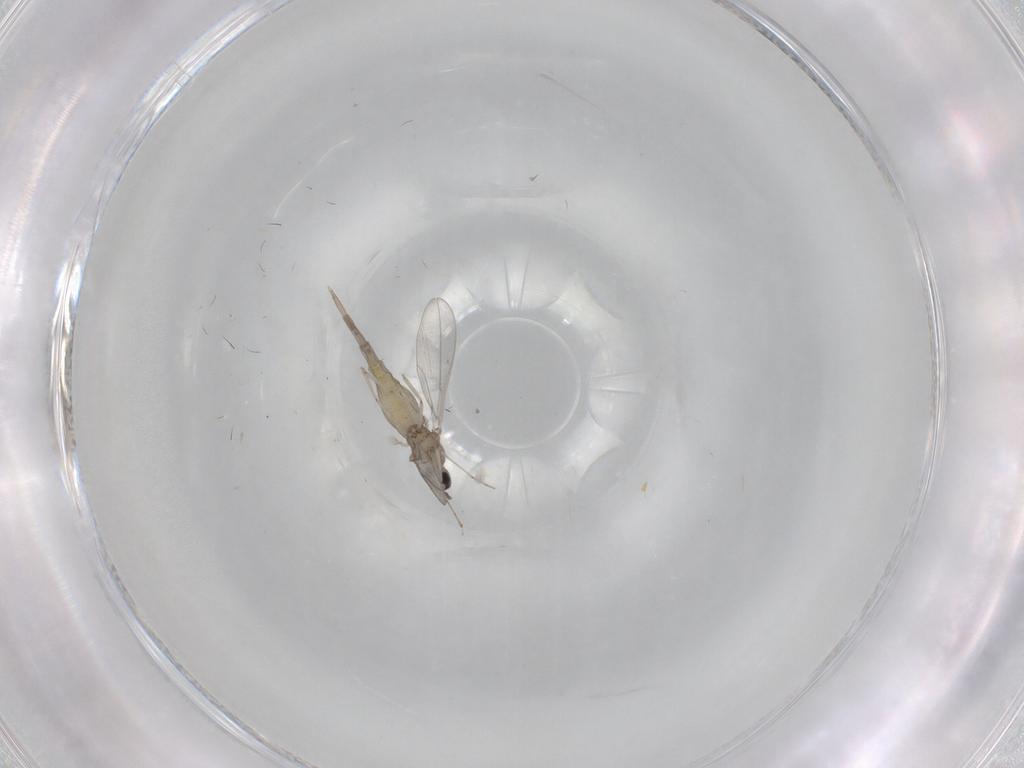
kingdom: Animalia
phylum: Arthropoda
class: Insecta
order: Diptera
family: Cecidomyiidae
